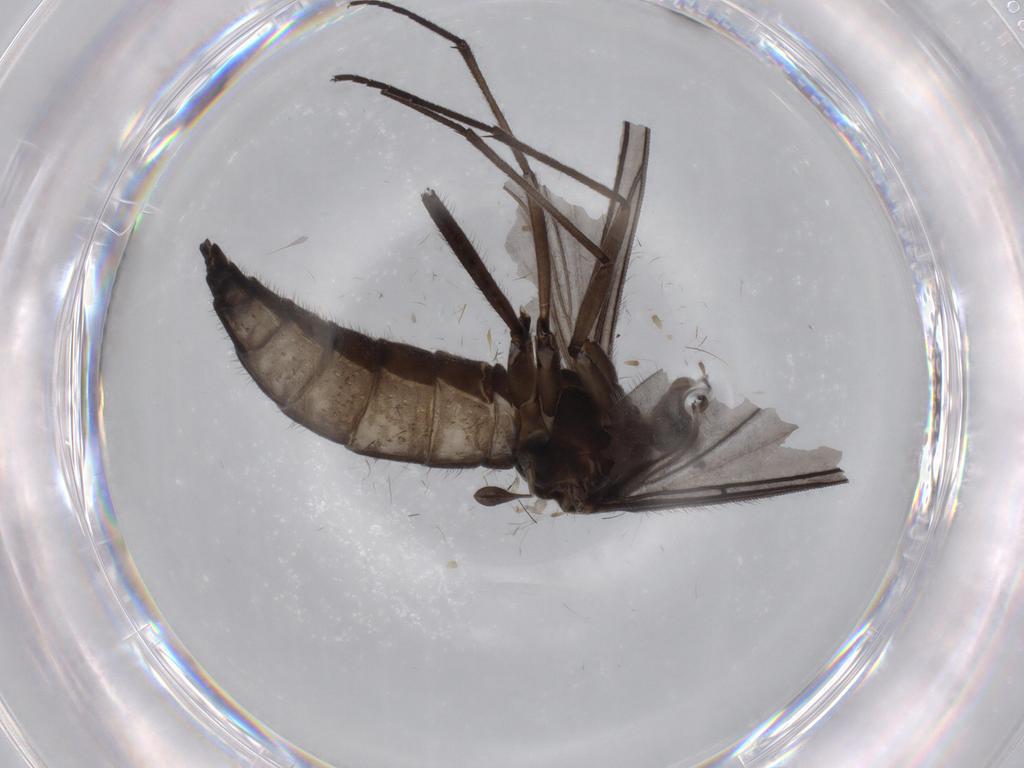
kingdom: Animalia
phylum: Arthropoda
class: Insecta
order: Diptera
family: Sciaridae
